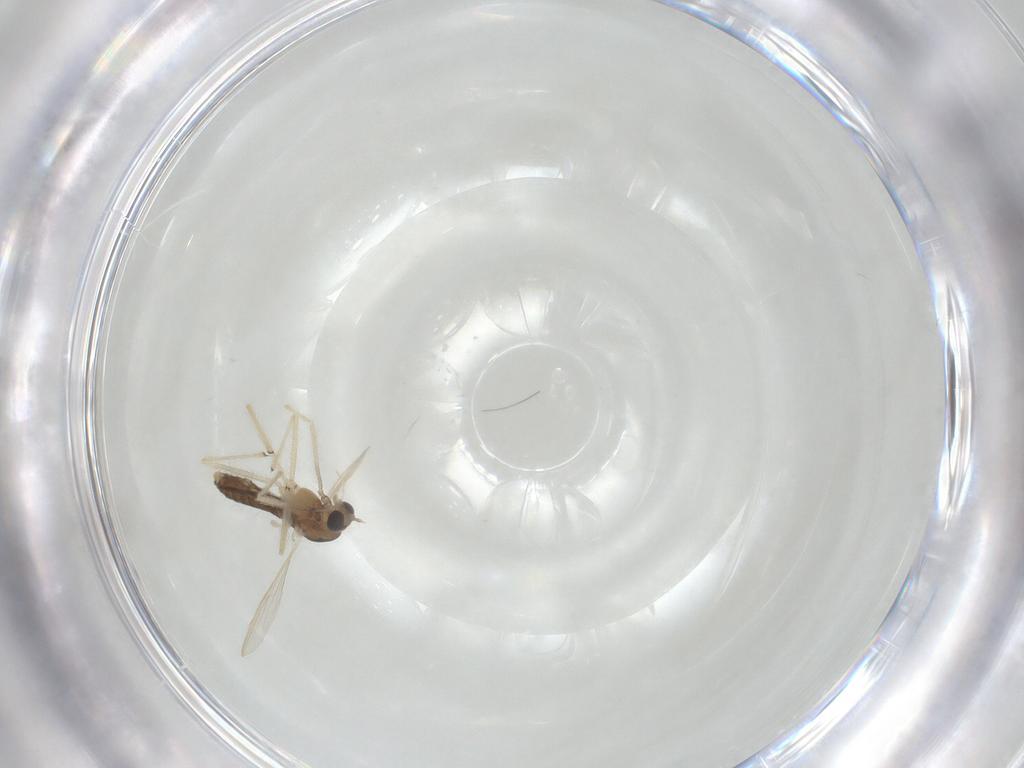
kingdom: Animalia
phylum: Arthropoda
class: Insecta
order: Diptera
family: Chironomidae
